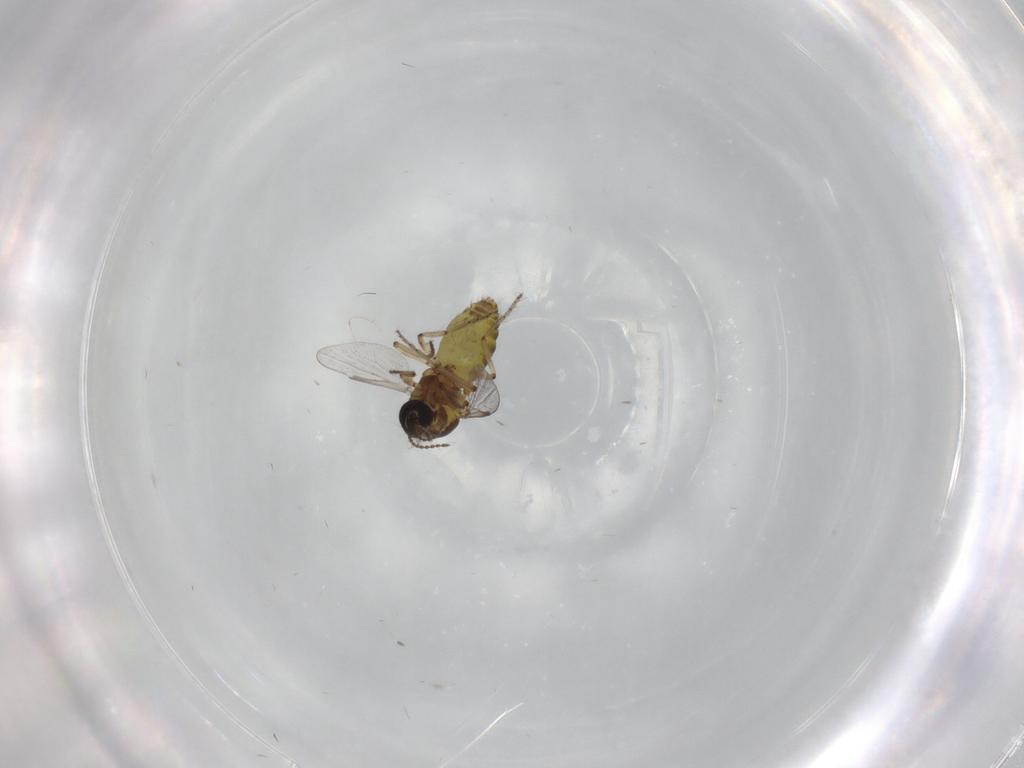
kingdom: Animalia
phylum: Arthropoda
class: Insecta
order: Diptera
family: Ceratopogonidae
